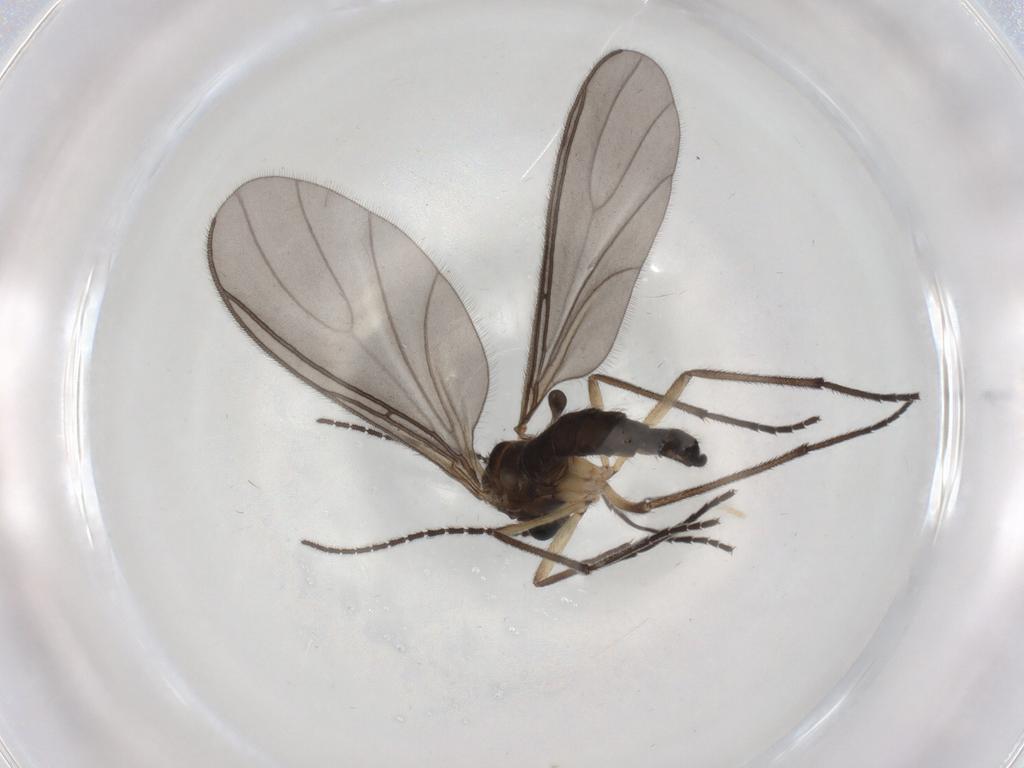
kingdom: Animalia
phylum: Arthropoda
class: Insecta
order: Diptera
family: Sciaridae
